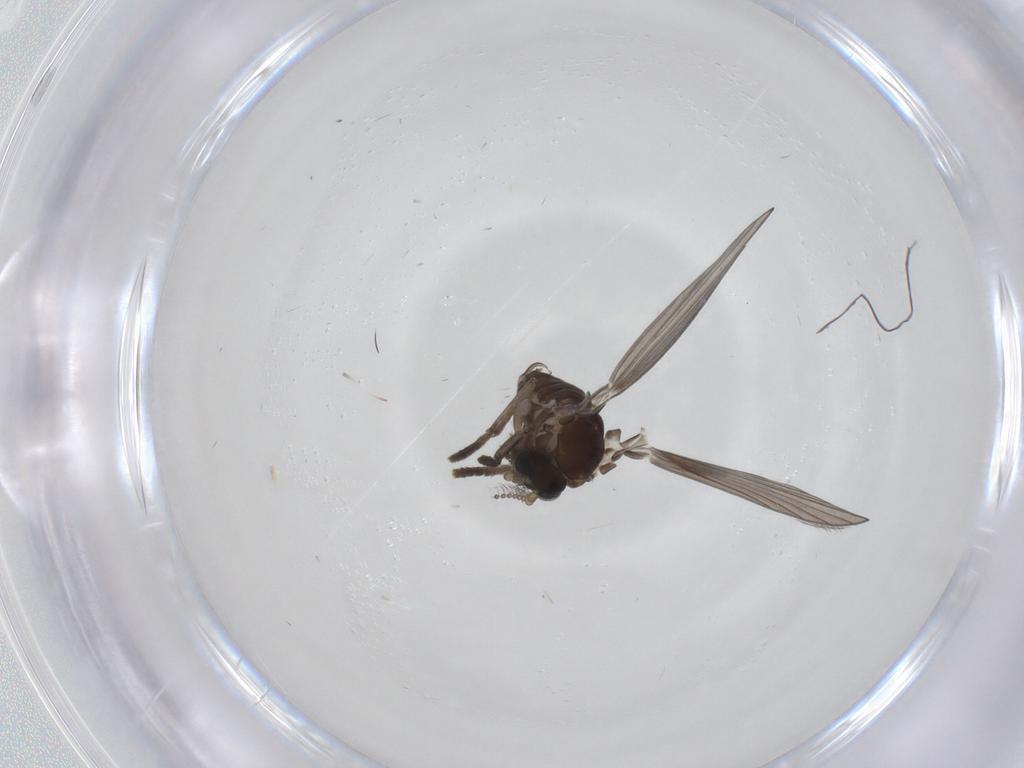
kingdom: Animalia
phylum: Arthropoda
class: Insecta
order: Diptera
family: Psychodidae
